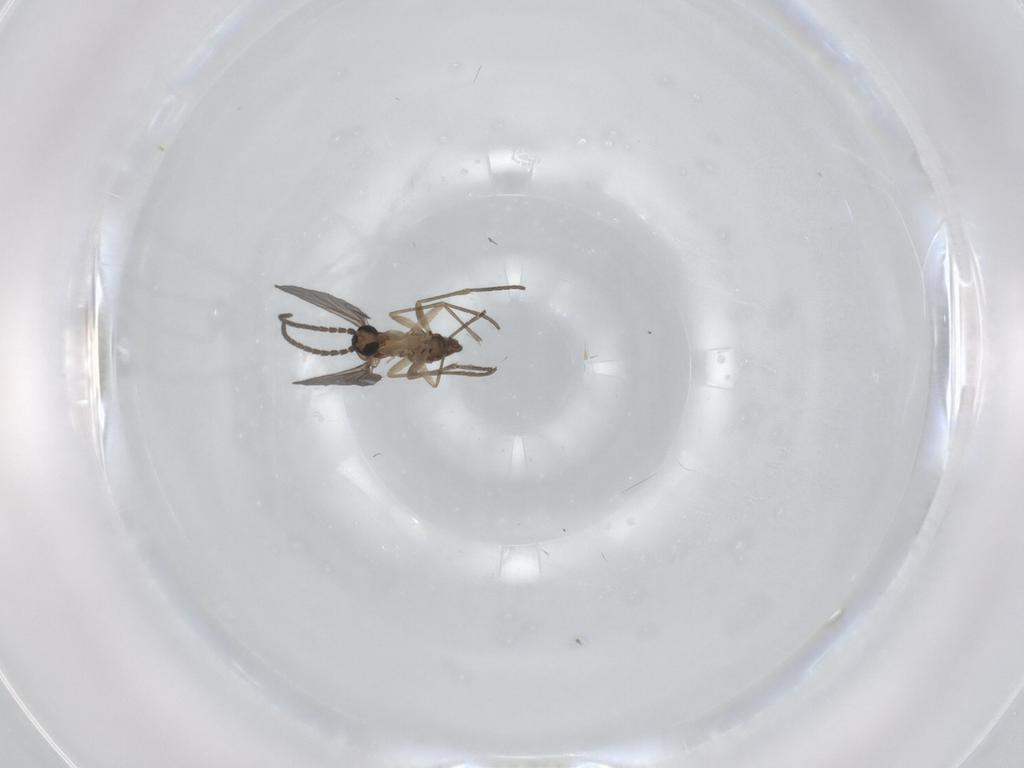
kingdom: Animalia
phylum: Arthropoda
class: Insecta
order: Diptera
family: Sciaridae
